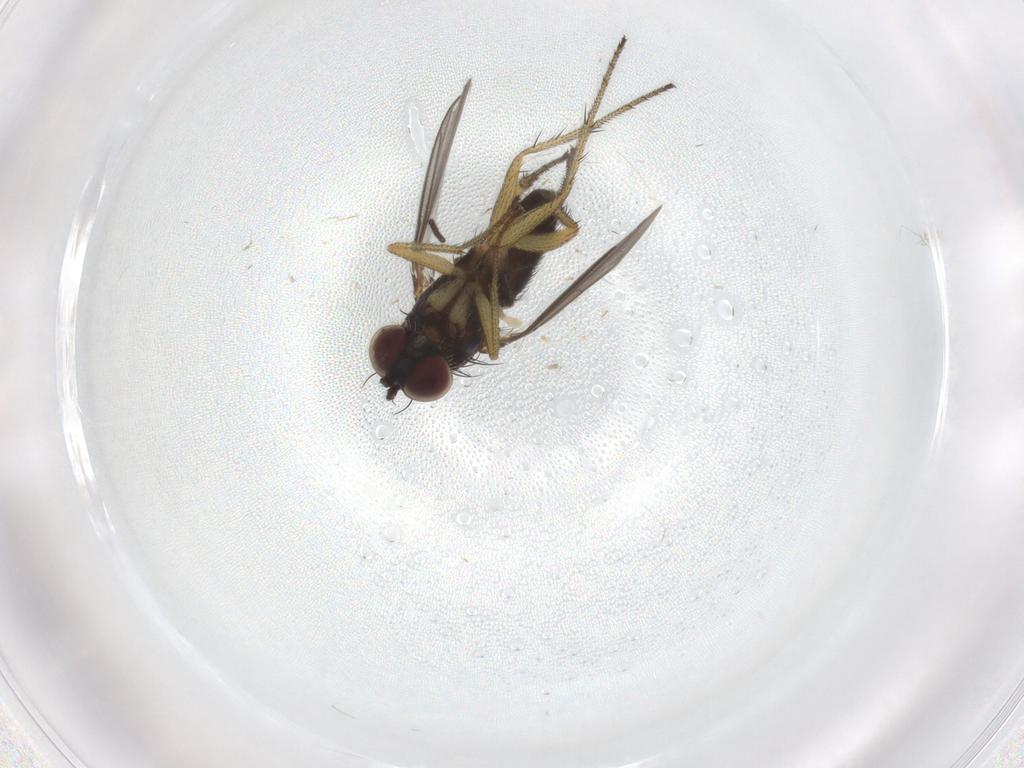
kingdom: Animalia
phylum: Arthropoda
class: Insecta
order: Diptera
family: Dolichopodidae
